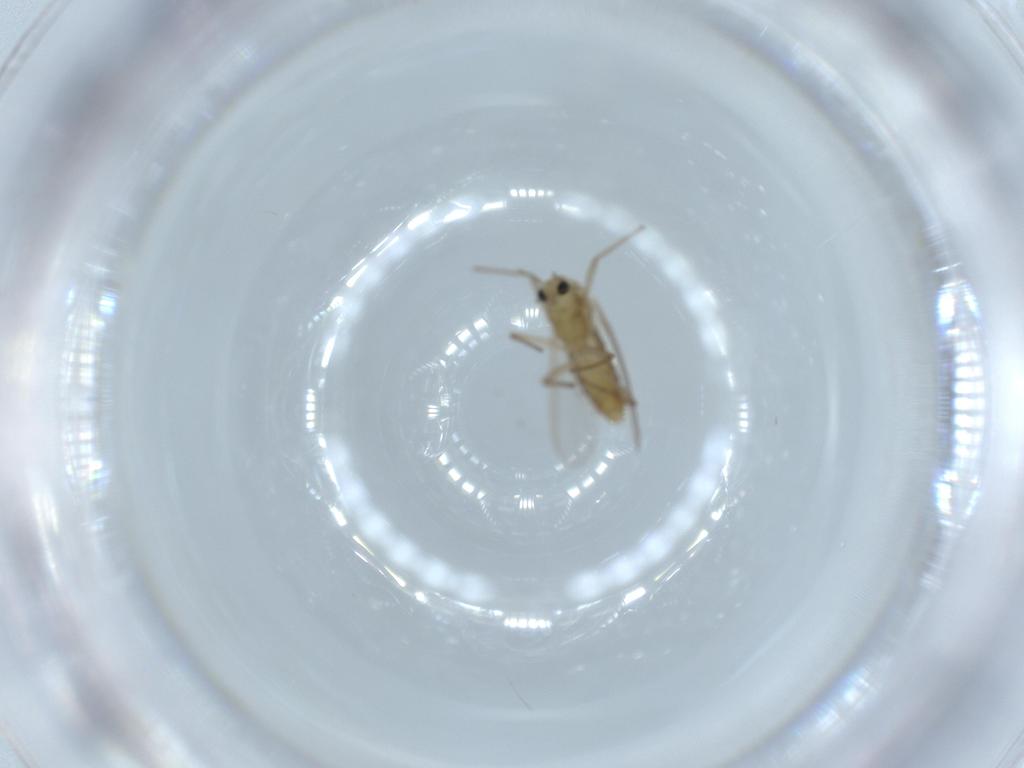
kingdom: Animalia
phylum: Arthropoda
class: Insecta
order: Diptera
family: Chironomidae
